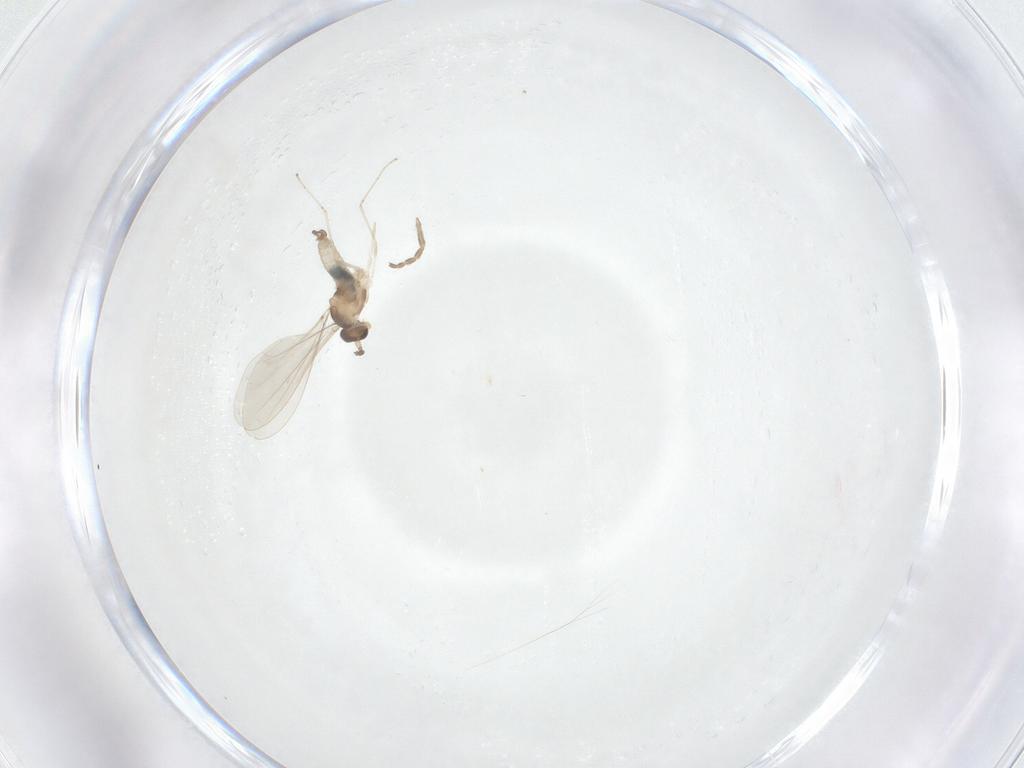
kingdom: Animalia
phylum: Arthropoda
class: Insecta
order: Diptera
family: Cecidomyiidae
